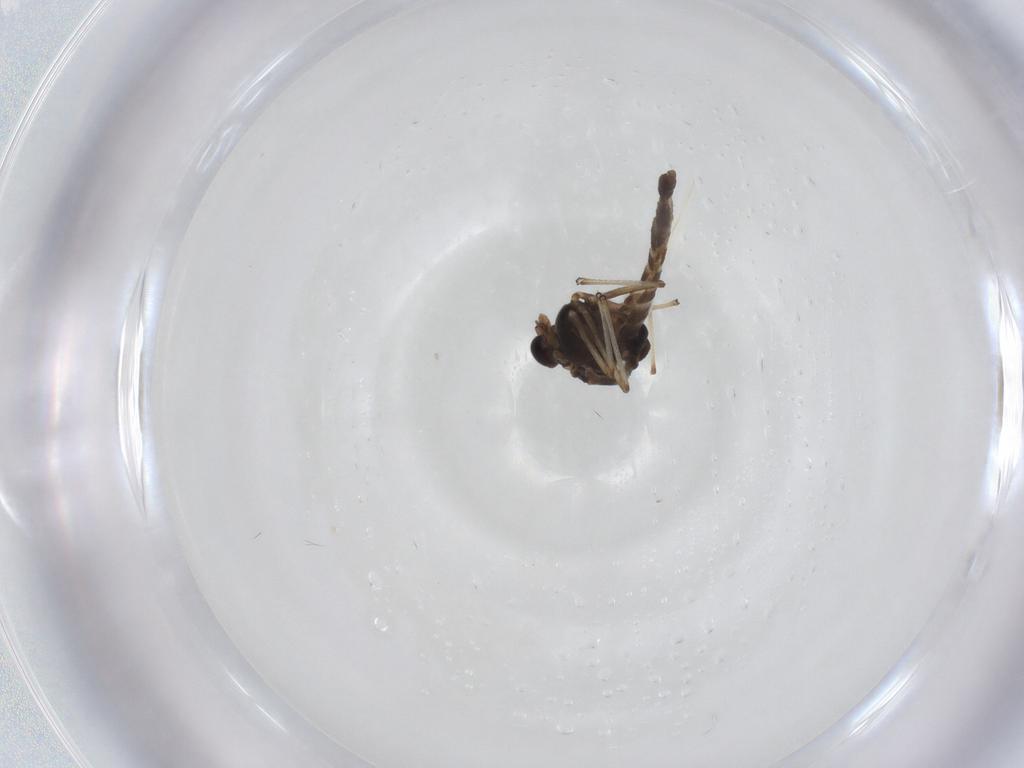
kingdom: Animalia
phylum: Arthropoda
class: Insecta
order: Diptera
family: Chironomidae
